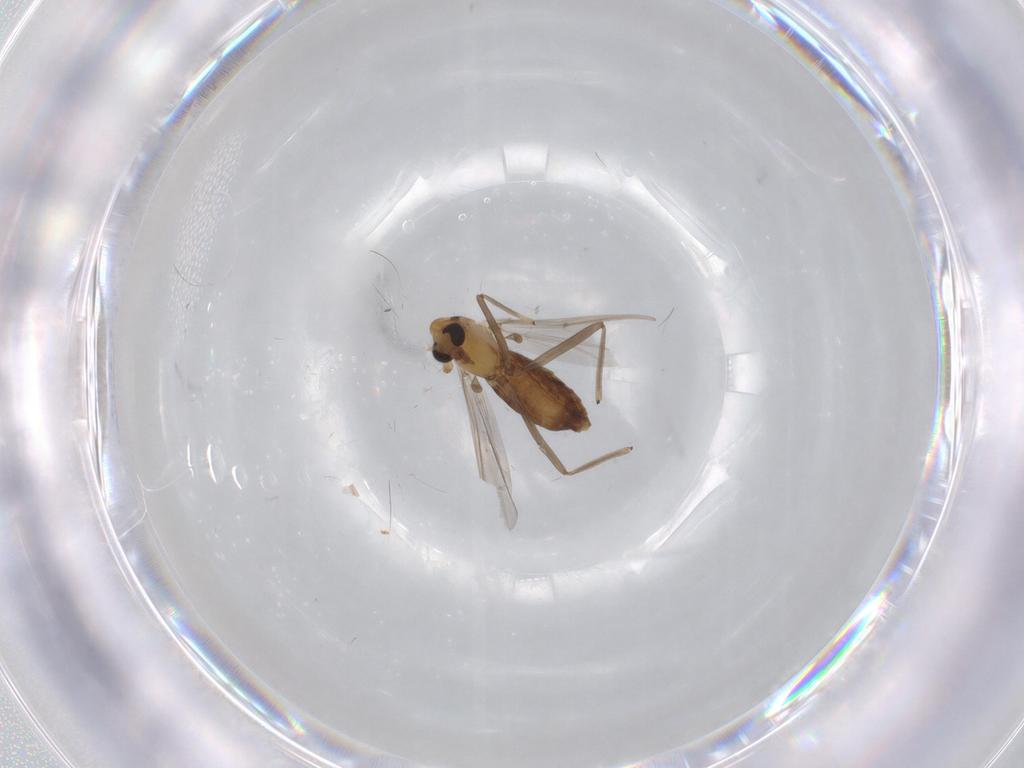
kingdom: Animalia
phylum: Arthropoda
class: Insecta
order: Diptera
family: Chironomidae
